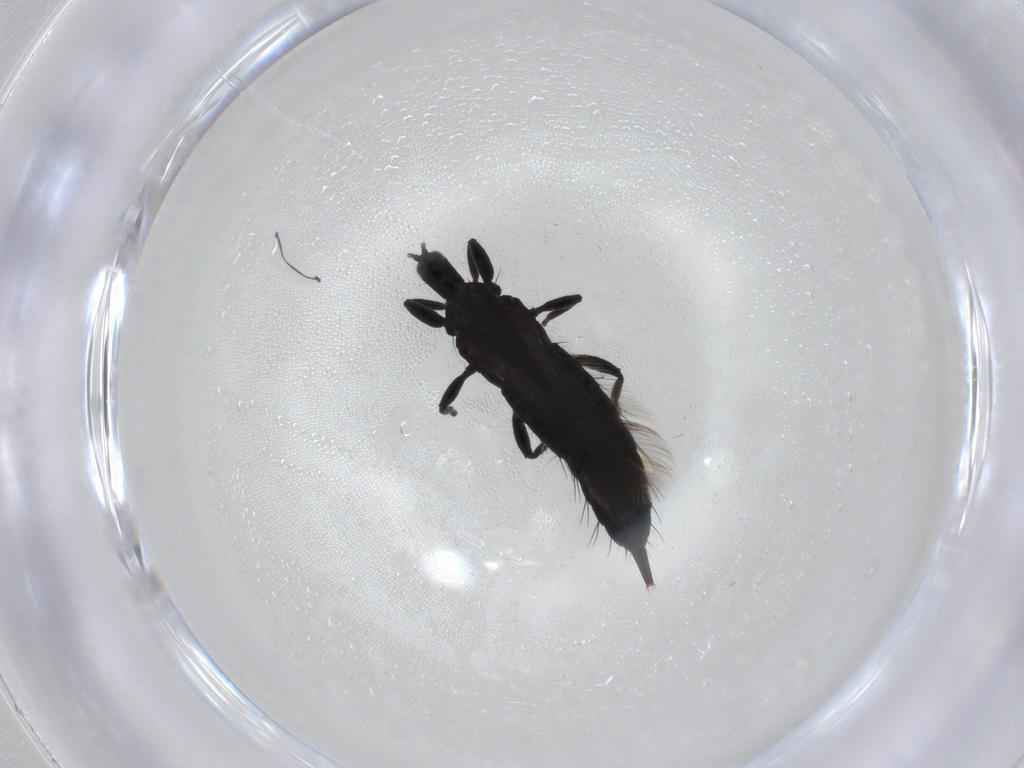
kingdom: Animalia
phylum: Arthropoda
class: Insecta
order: Thysanoptera
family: Phlaeothripidae
